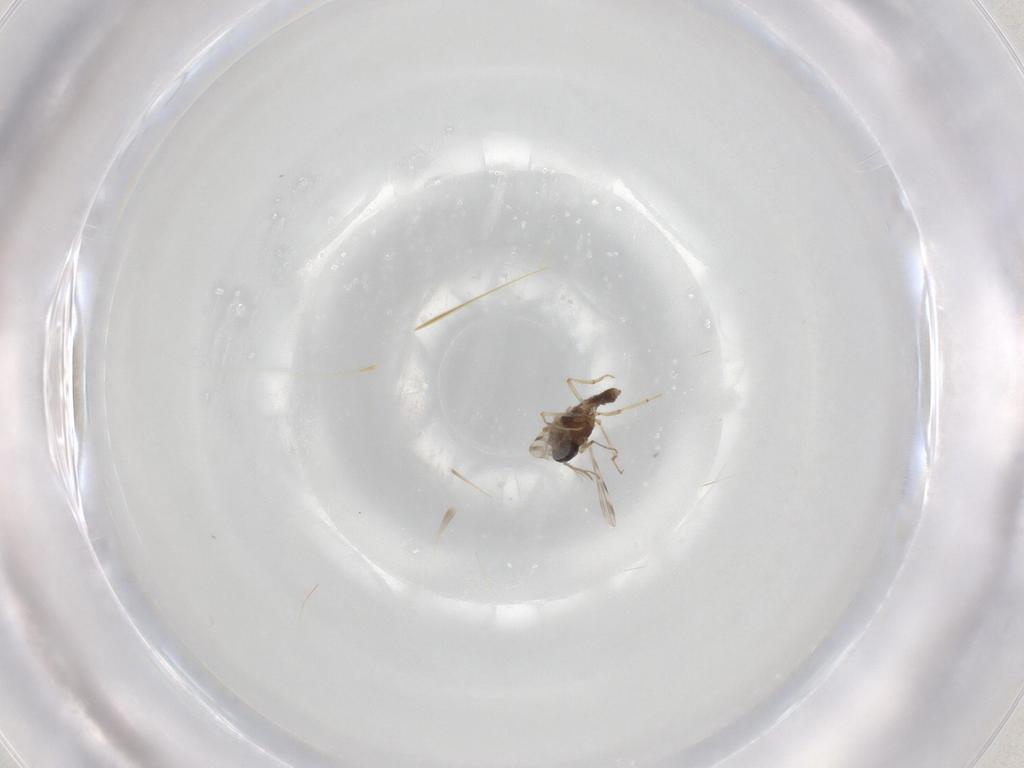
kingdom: Animalia
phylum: Arthropoda
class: Insecta
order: Diptera
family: Ceratopogonidae
